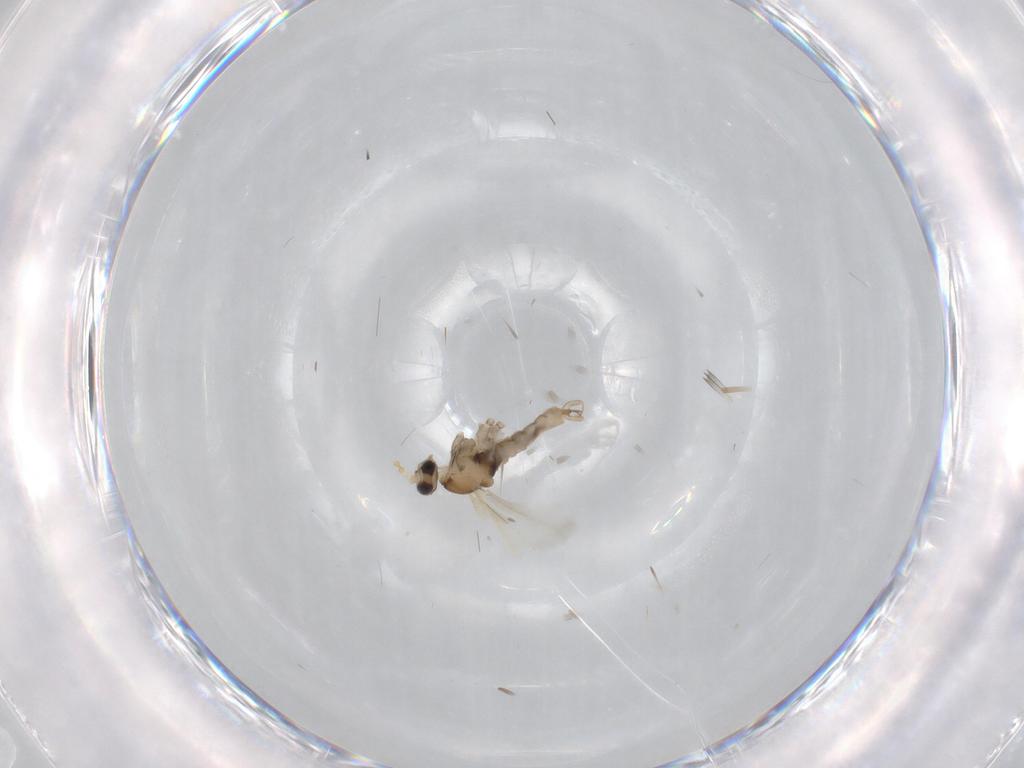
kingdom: Animalia
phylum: Arthropoda
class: Insecta
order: Diptera
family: Cecidomyiidae
